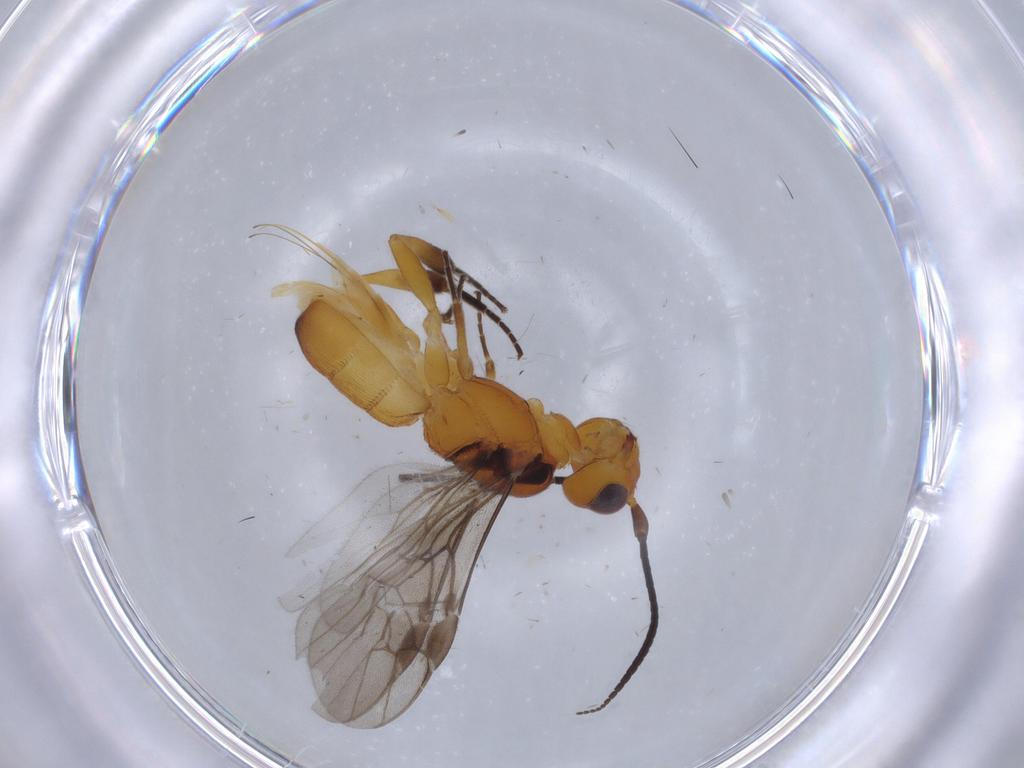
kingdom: Animalia
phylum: Arthropoda
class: Insecta
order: Hymenoptera
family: Braconidae
